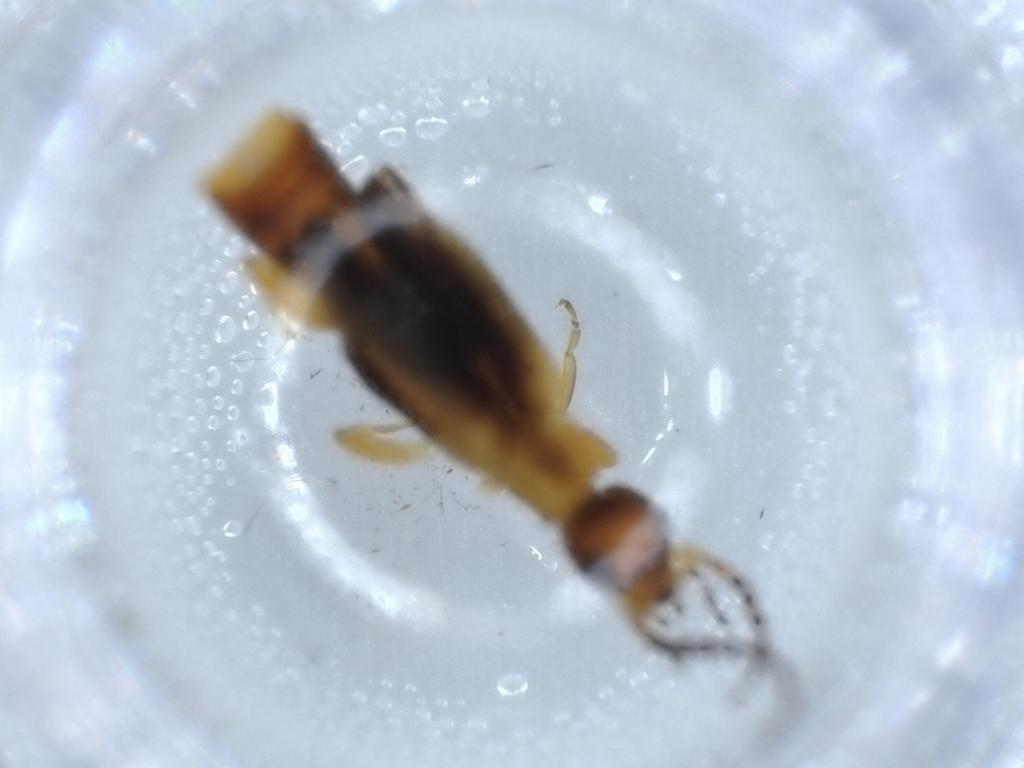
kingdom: Animalia
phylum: Arthropoda
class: Insecta
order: Dermaptera
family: Forficulidae
